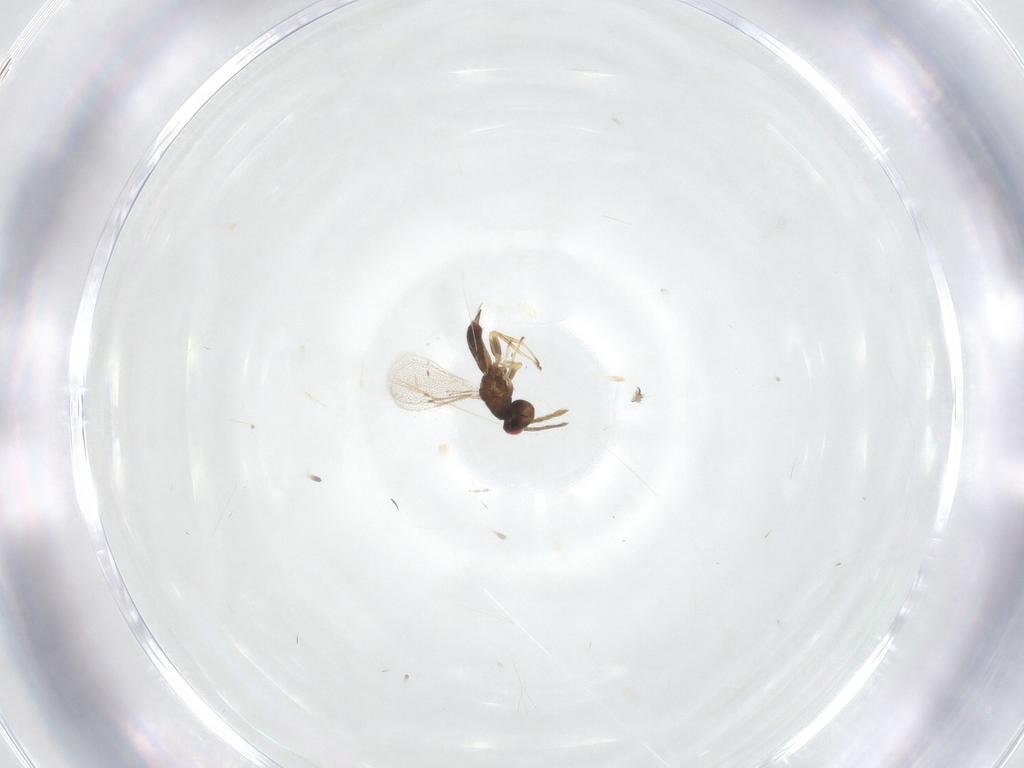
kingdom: Animalia
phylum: Arthropoda
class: Insecta
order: Hymenoptera
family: Eulophidae
